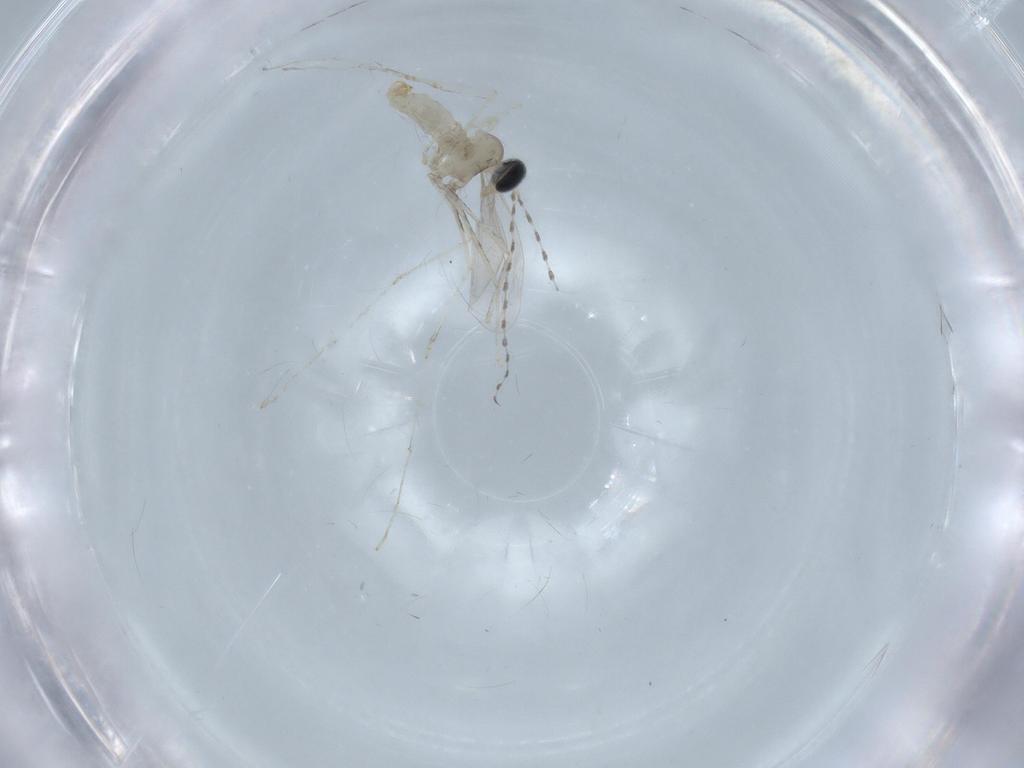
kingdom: Animalia
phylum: Arthropoda
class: Insecta
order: Diptera
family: Cecidomyiidae
